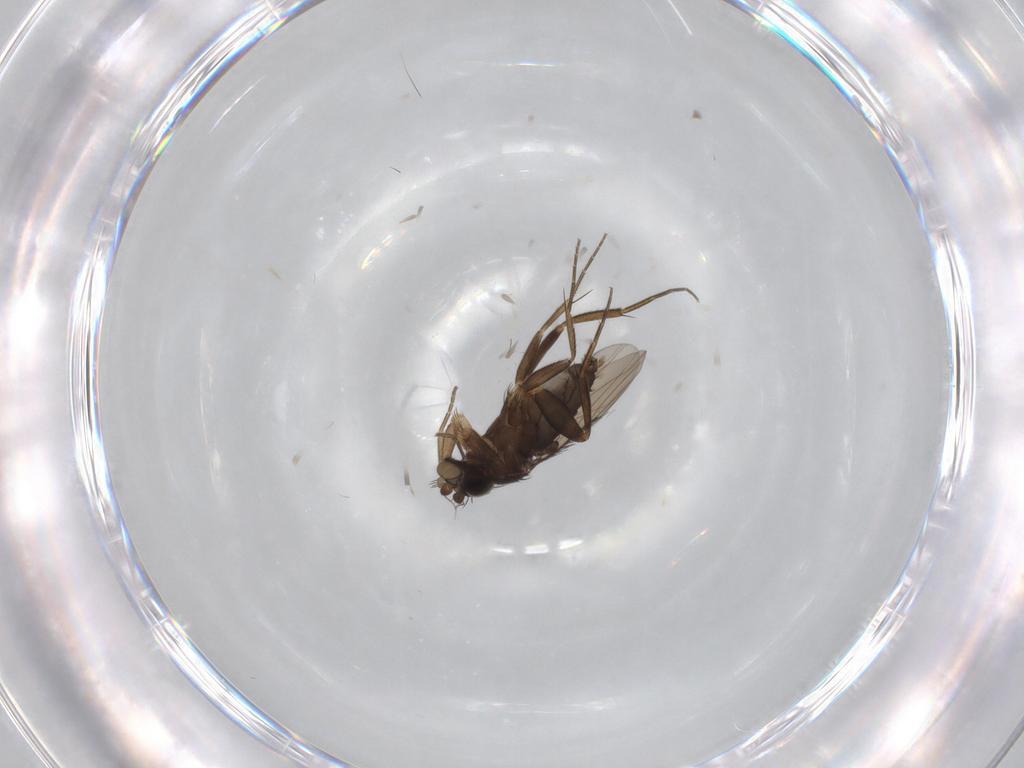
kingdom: Animalia
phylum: Arthropoda
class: Insecta
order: Diptera
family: Phoridae
